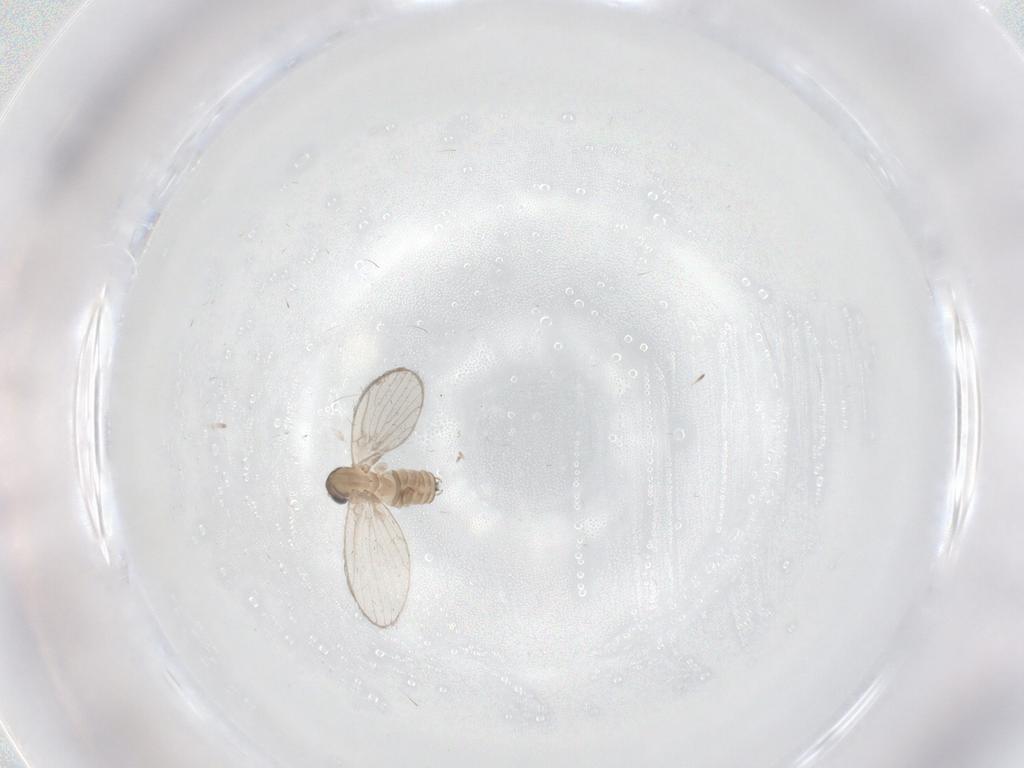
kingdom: Animalia
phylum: Arthropoda
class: Insecta
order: Diptera
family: Psychodidae
